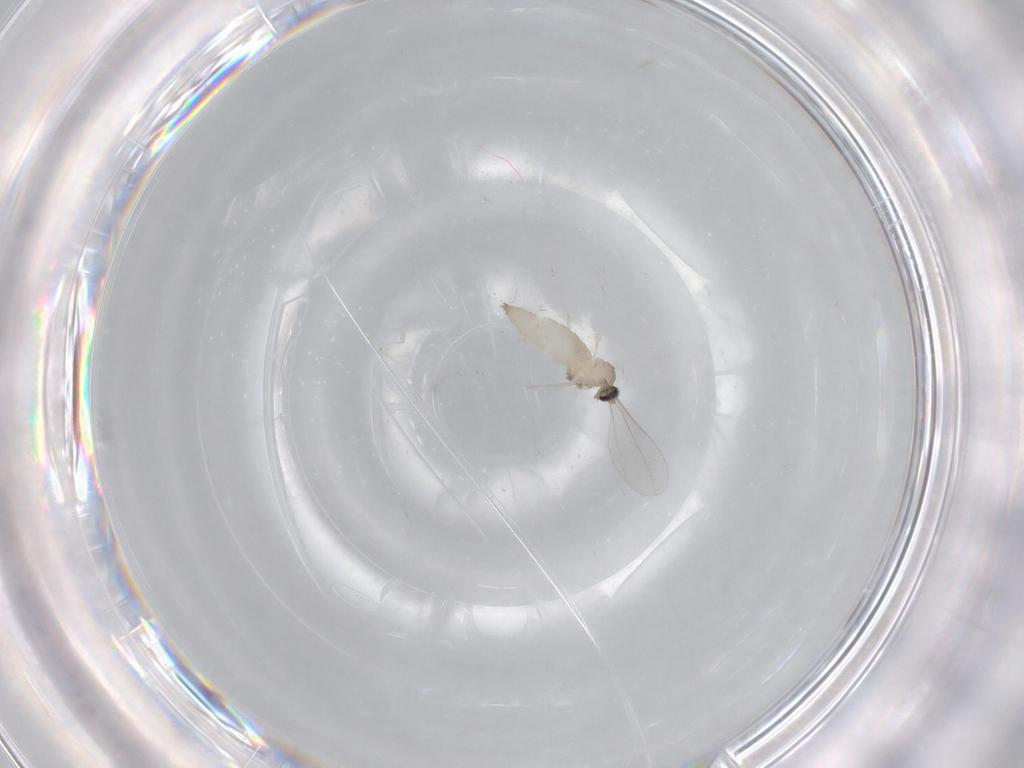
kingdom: Animalia
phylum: Arthropoda
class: Insecta
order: Diptera
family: Cecidomyiidae
